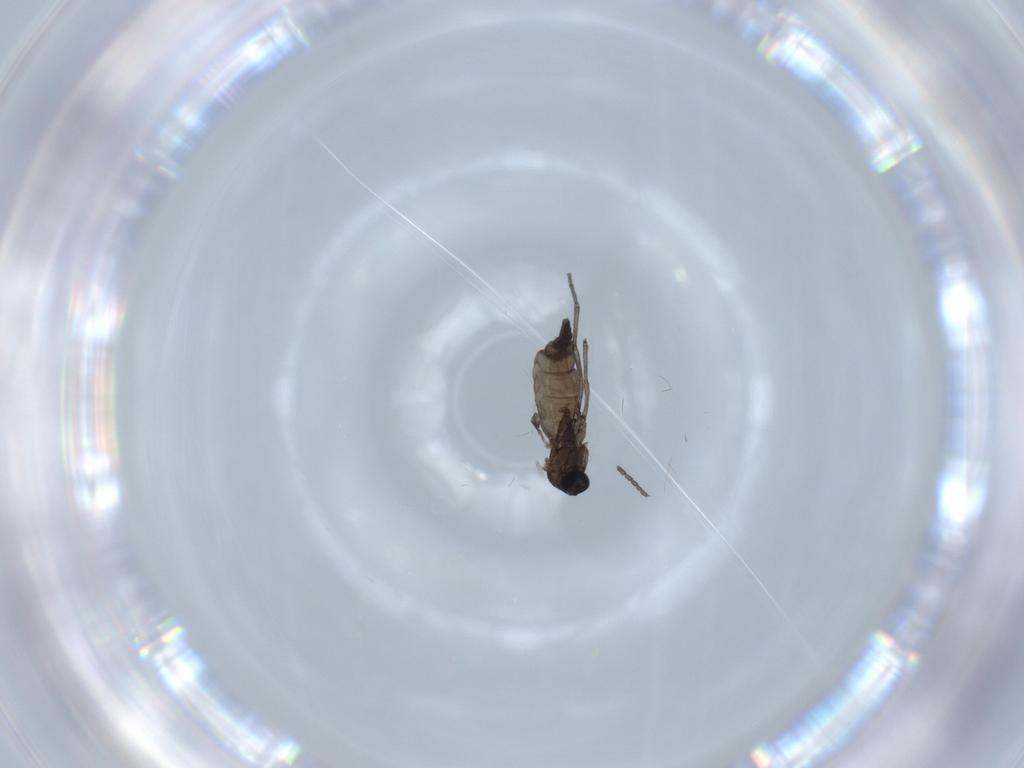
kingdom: Animalia
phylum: Arthropoda
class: Insecta
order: Diptera
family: Sciaridae
